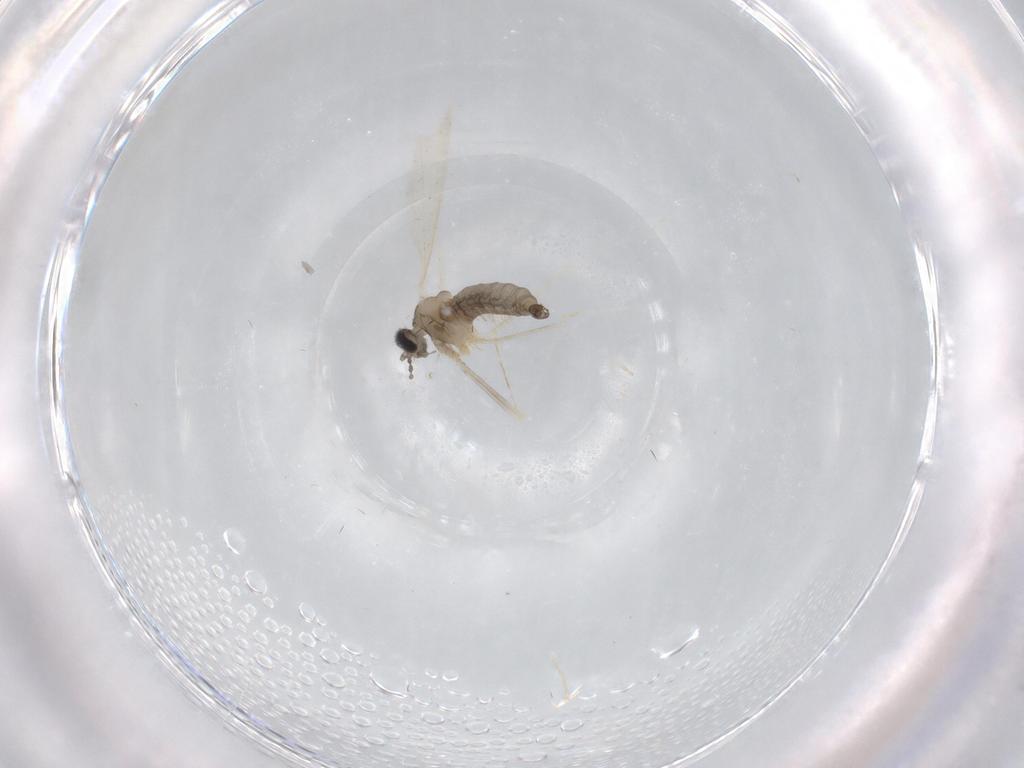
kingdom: Animalia
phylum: Arthropoda
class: Insecta
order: Diptera
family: Cecidomyiidae
